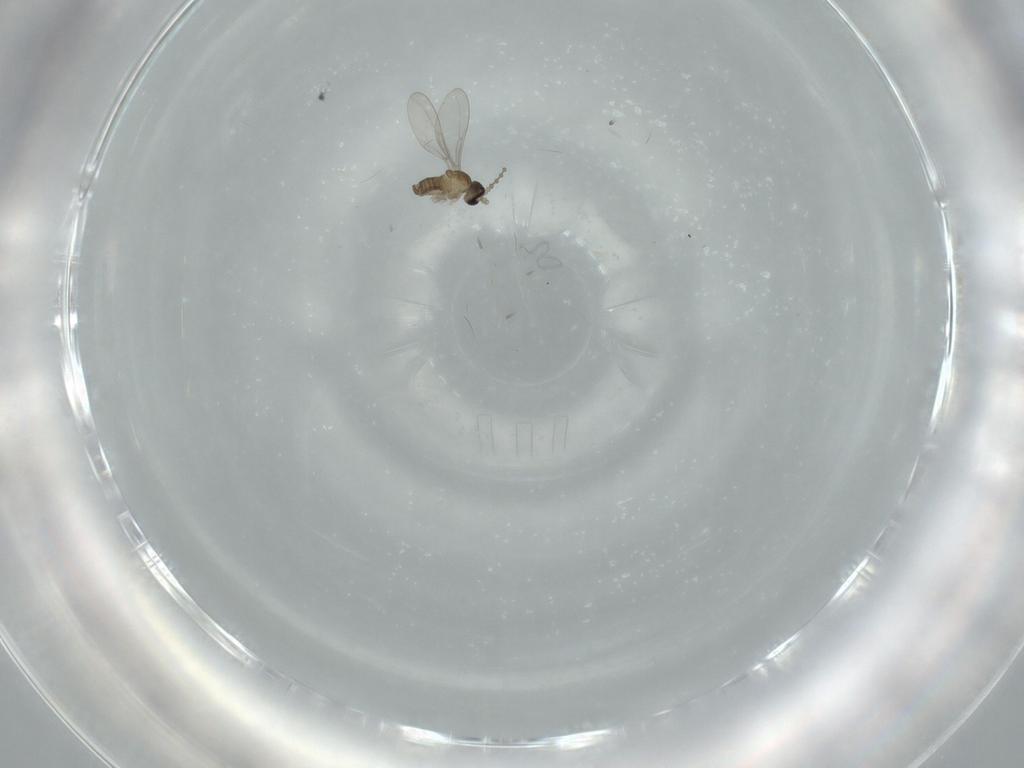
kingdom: Animalia
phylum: Arthropoda
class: Insecta
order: Diptera
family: Cecidomyiidae
